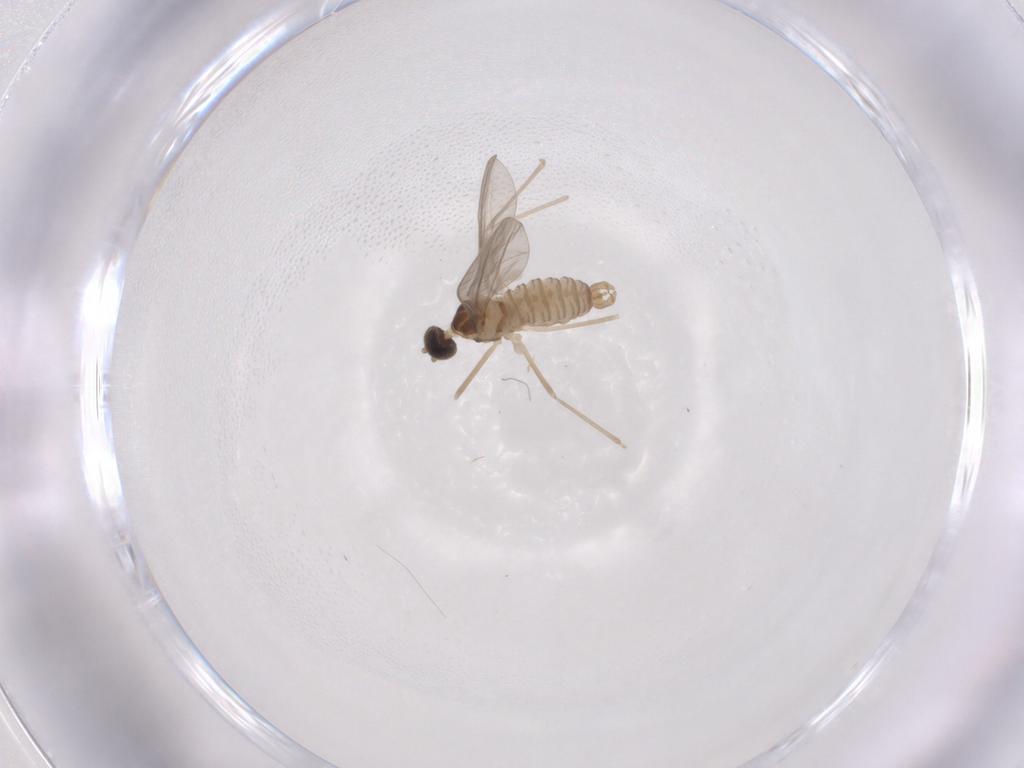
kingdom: Animalia
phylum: Arthropoda
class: Insecta
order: Diptera
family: Cecidomyiidae
